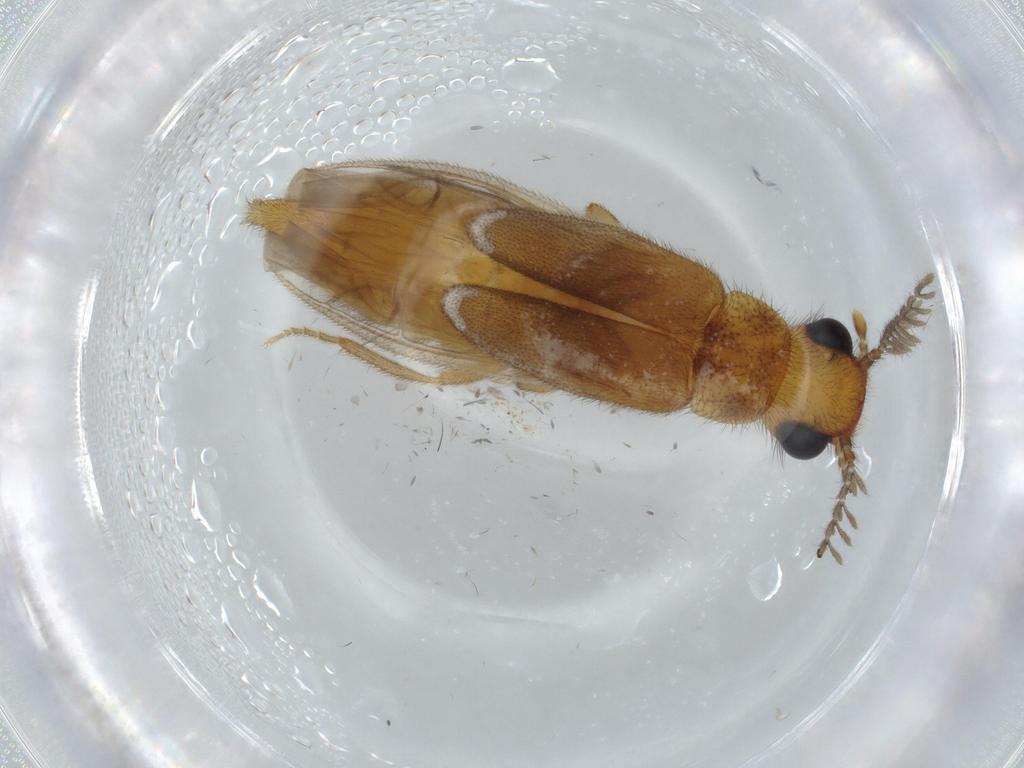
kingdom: Animalia
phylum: Arthropoda
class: Insecta
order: Coleoptera
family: Phengodidae
